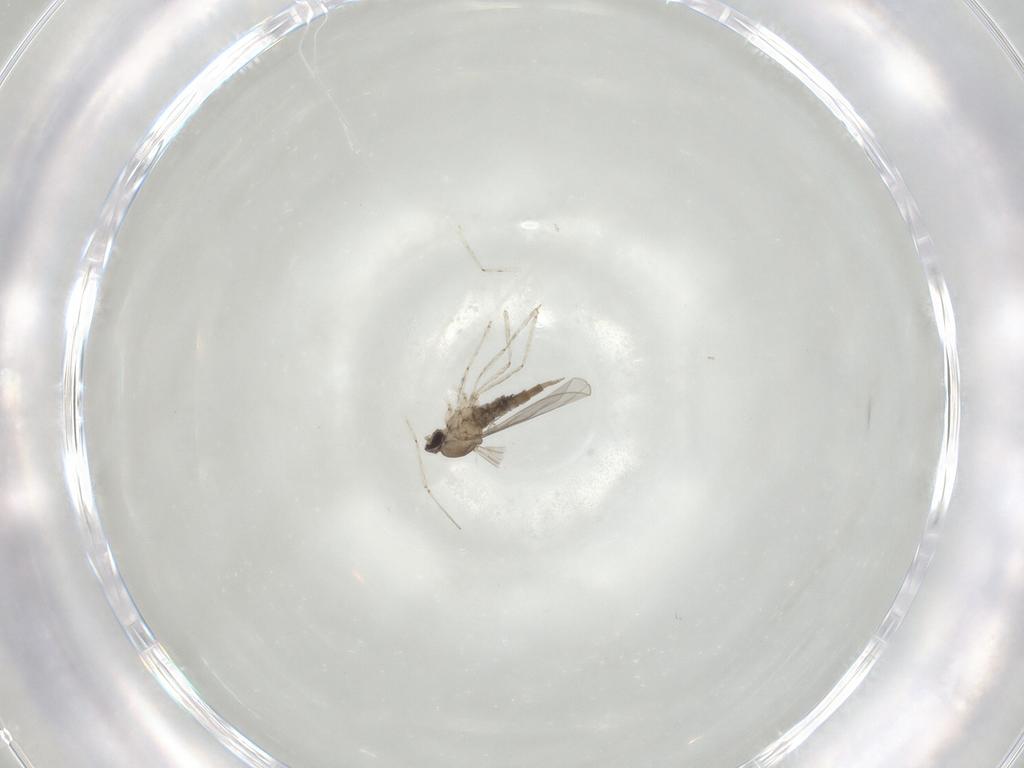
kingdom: Animalia
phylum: Arthropoda
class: Insecta
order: Diptera
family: Cecidomyiidae
